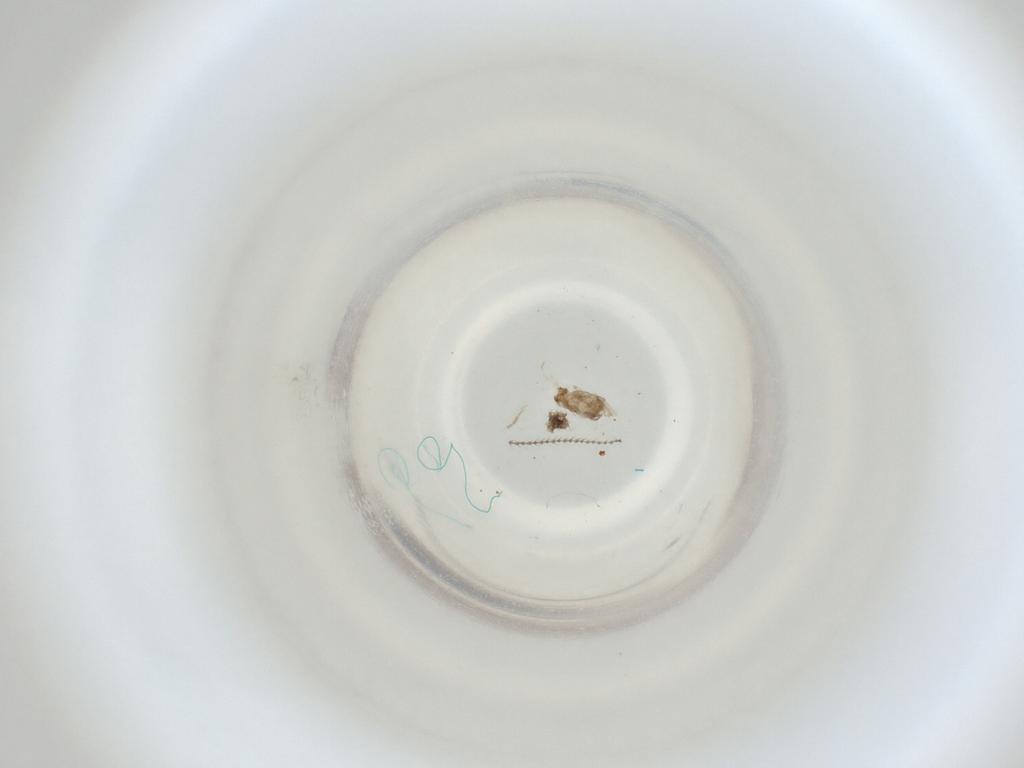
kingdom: Animalia
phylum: Arthropoda
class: Insecta
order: Diptera
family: Cecidomyiidae
